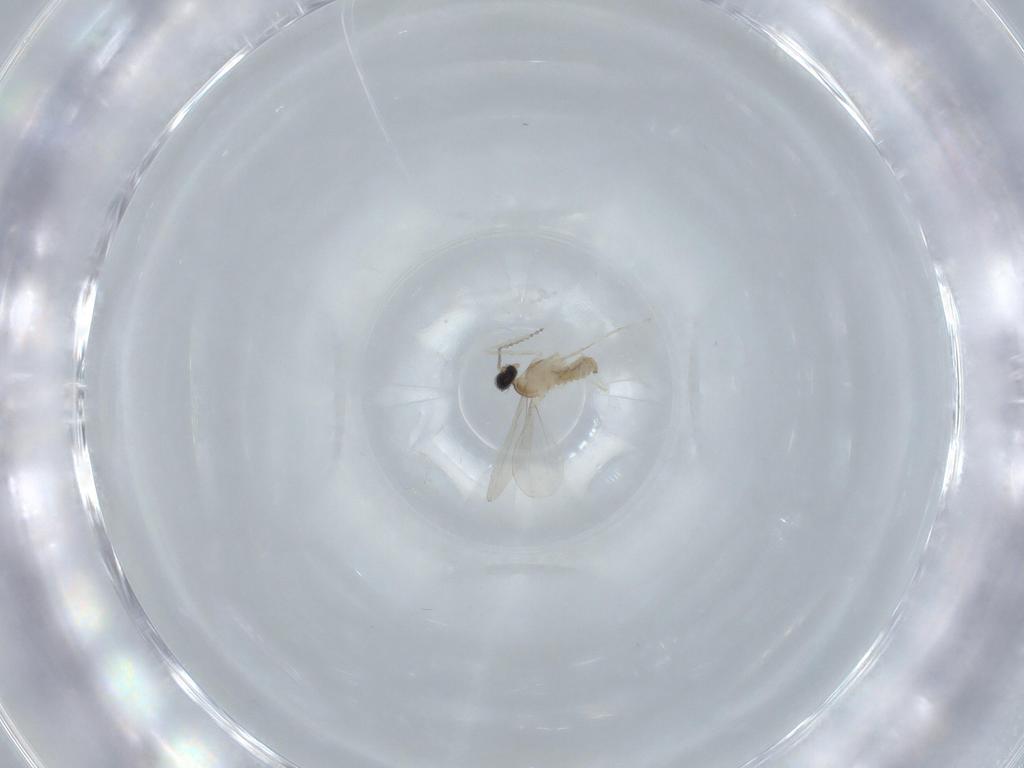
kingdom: Animalia
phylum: Arthropoda
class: Insecta
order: Diptera
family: Cecidomyiidae
